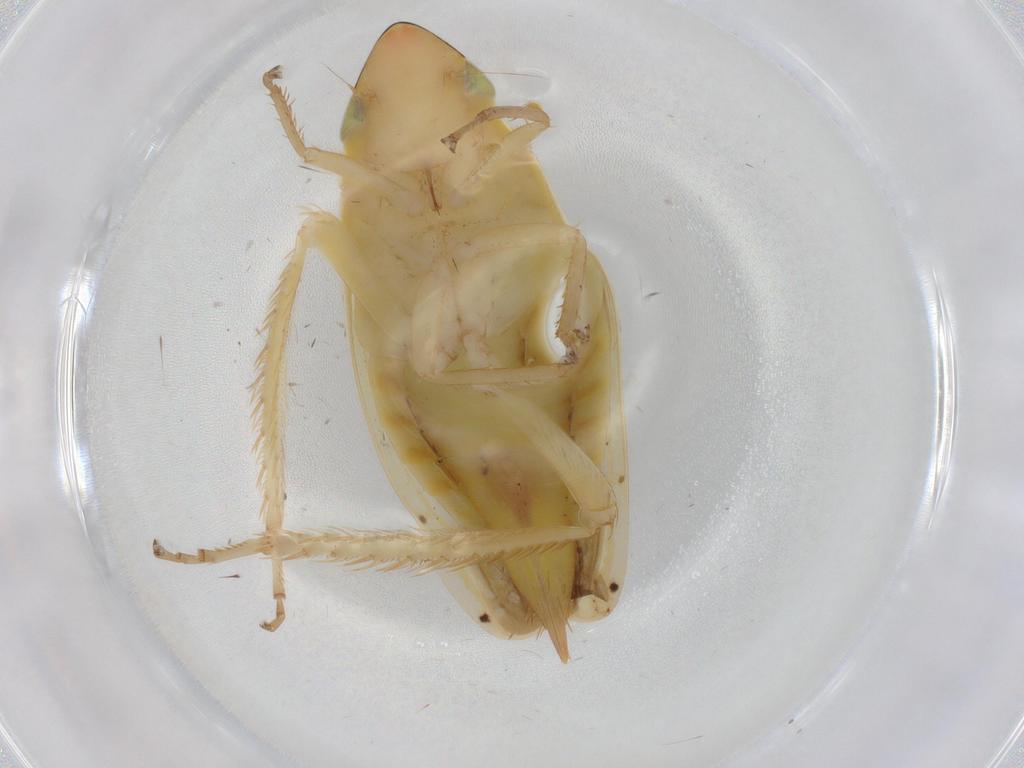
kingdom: Animalia
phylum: Arthropoda
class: Insecta
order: Hemiptera
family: Cicadellidae
